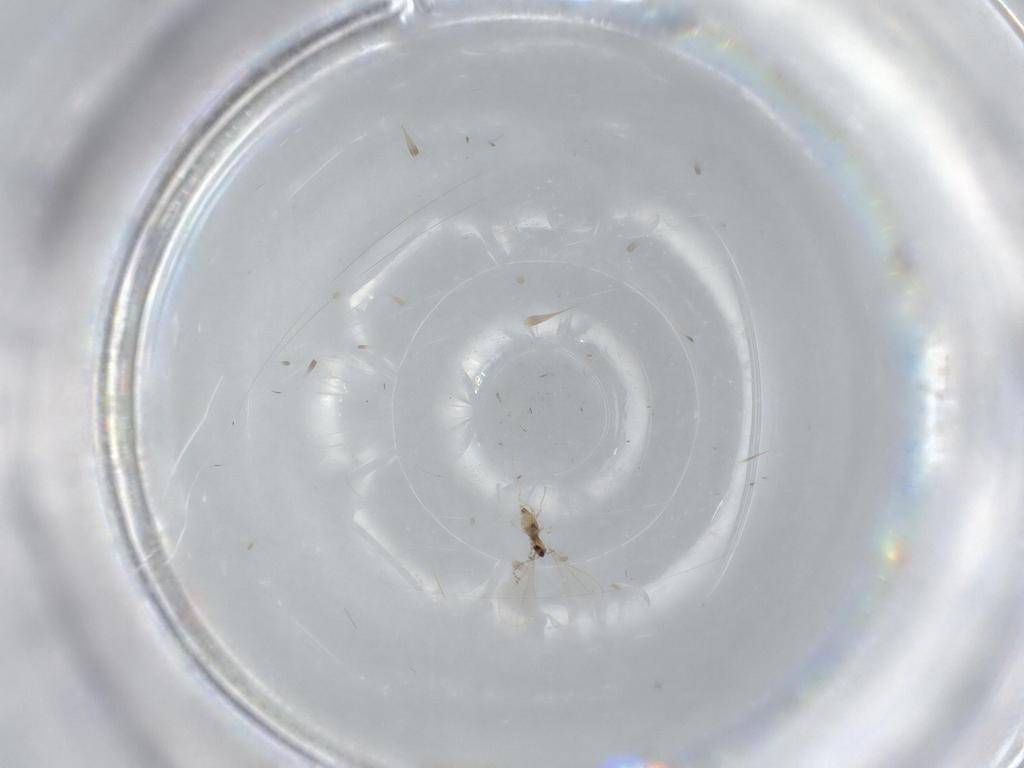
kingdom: Animalia
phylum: Arthropoda
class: Insecta
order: Diptera
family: Cecidomyiidae
